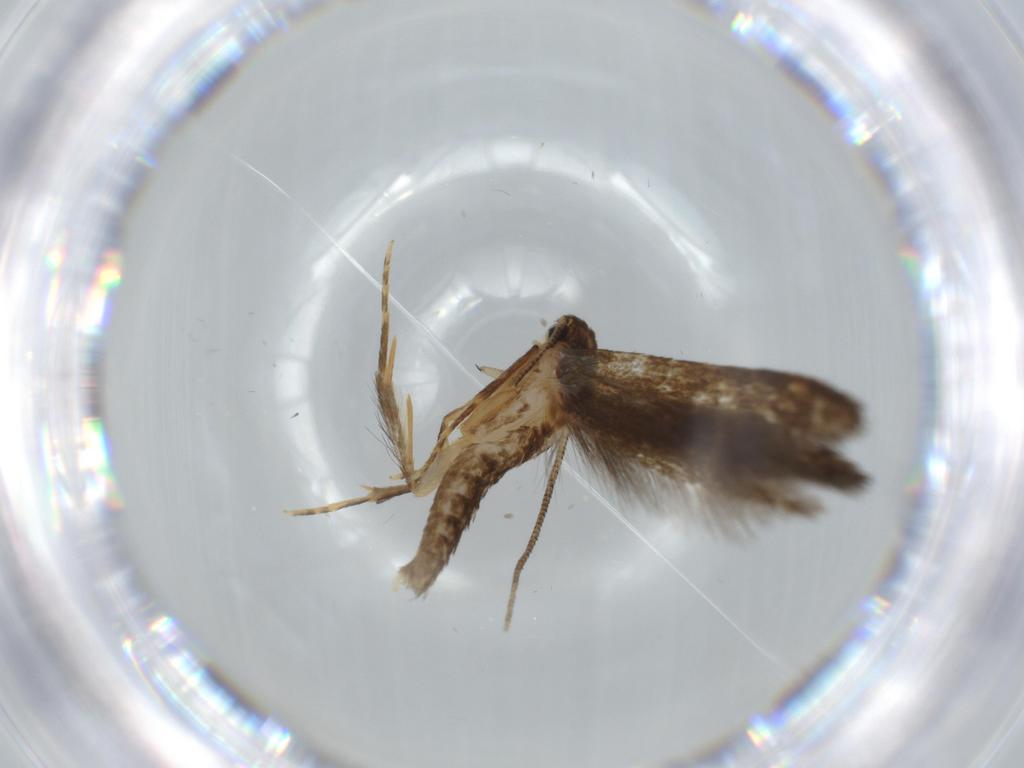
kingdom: Animalia
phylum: Arthropoda
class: Insecta
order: Lepidoptera
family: Tineidae
